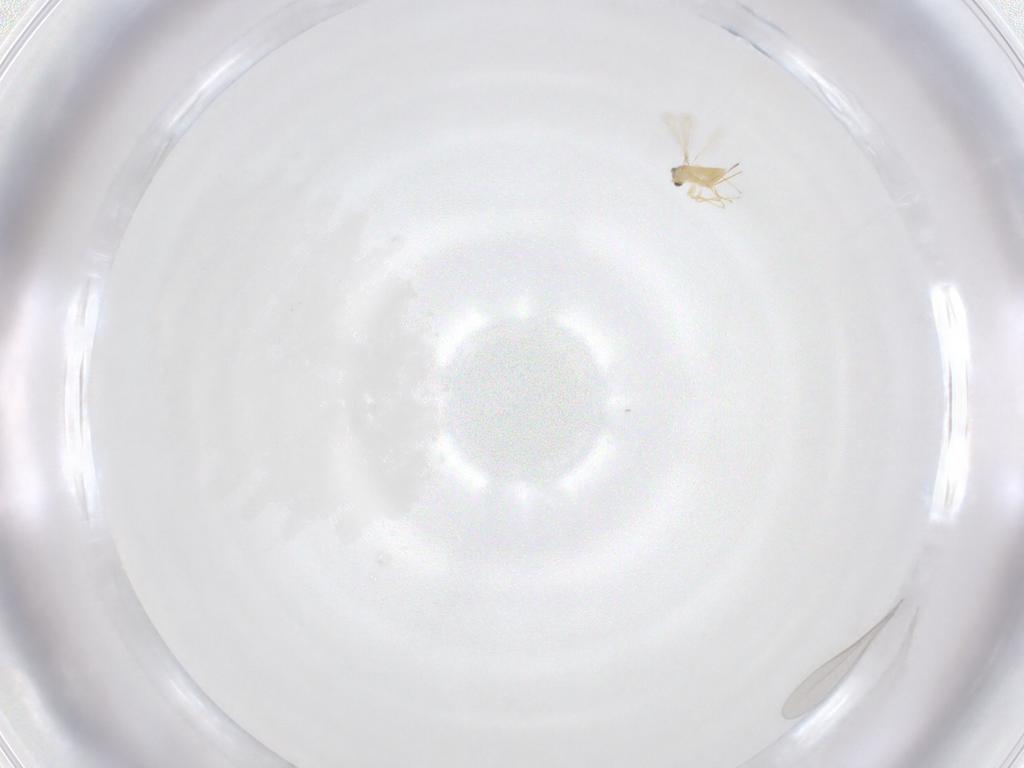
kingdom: Animalia
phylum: Arthropoda
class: Insecta
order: Hymenoptera
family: Mymaridae
